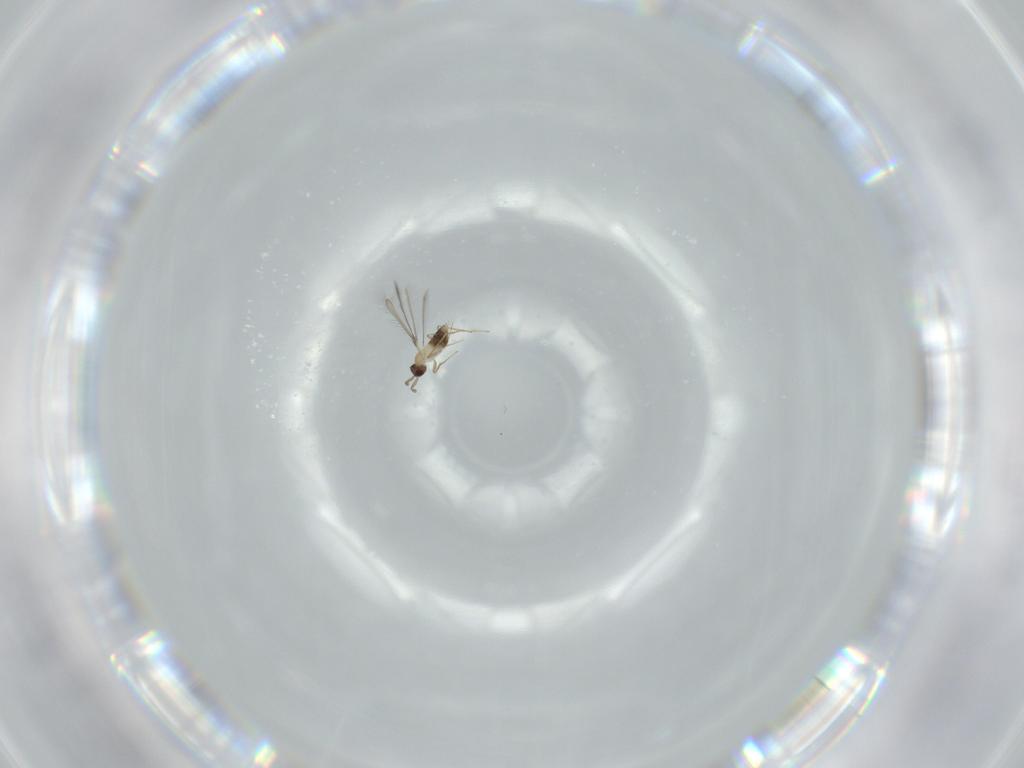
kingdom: Animalia
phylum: Arthropoda
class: Insecta
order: Hymenoptera
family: Mymaridae
